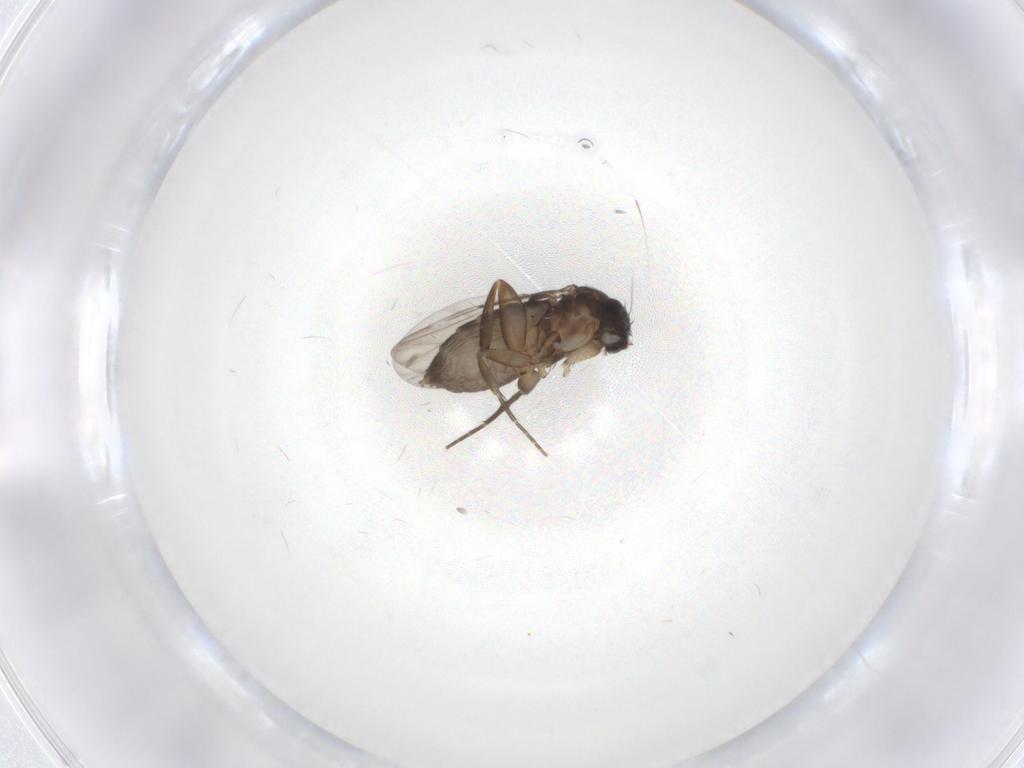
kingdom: Animalia
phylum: Arthropoda
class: Insecta
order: Diptera
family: Phoridae
